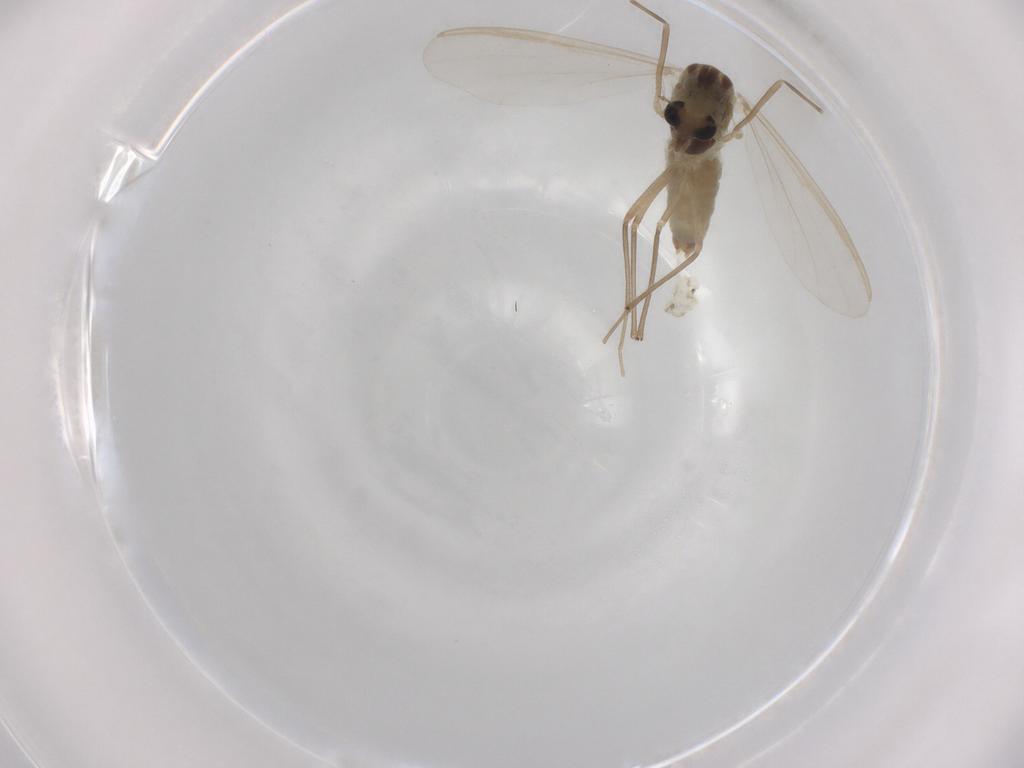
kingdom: Animalia
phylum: Arthropoda
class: Insecta
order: Diptera
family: Chironomidae
